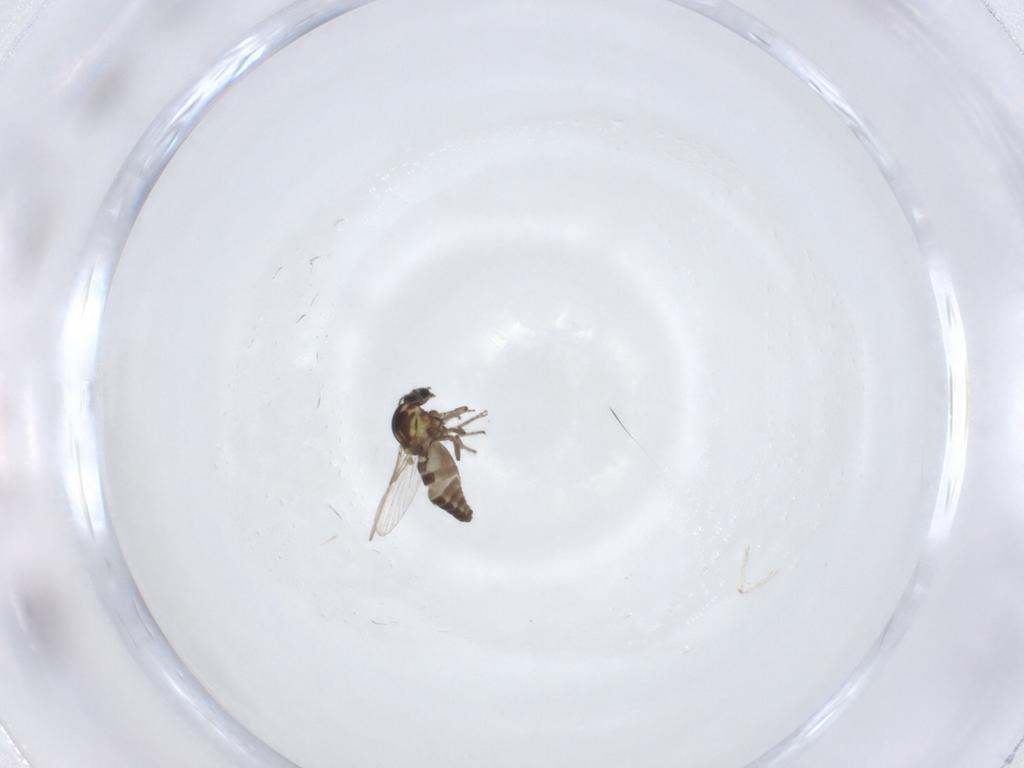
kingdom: Animalia
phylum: Arthropoda
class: Insecta
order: Diptera
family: Ceratopogonidae
